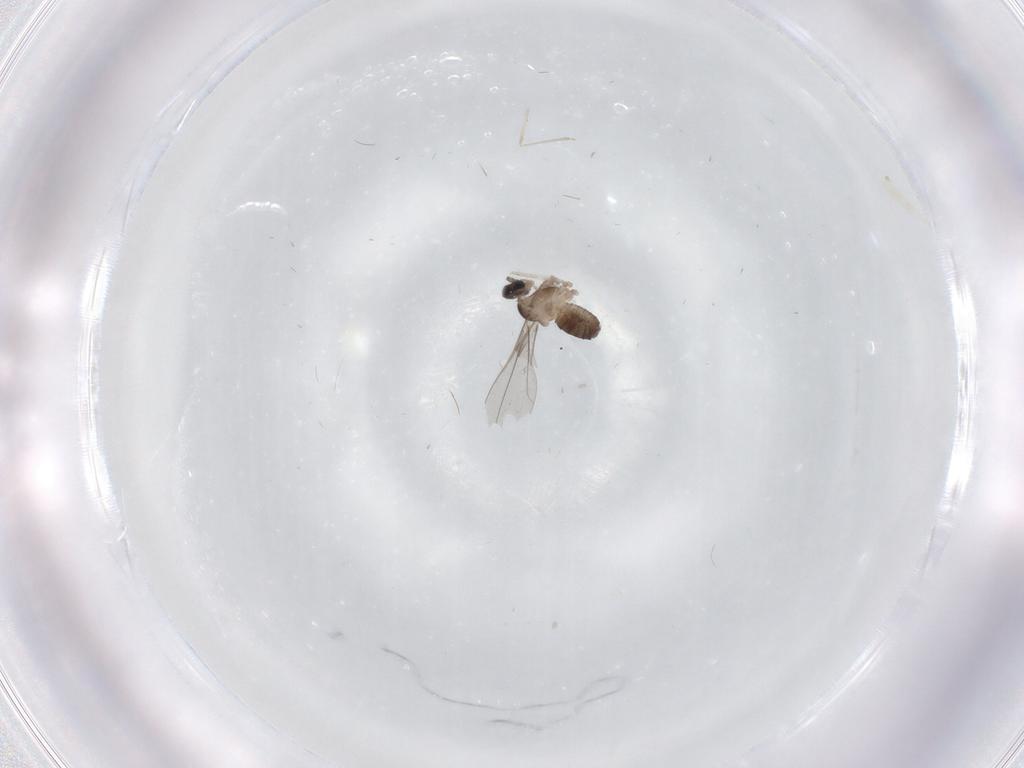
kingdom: Animalia
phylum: Arthropoda
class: Insecta
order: Diptera
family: Cecidomyiidae
